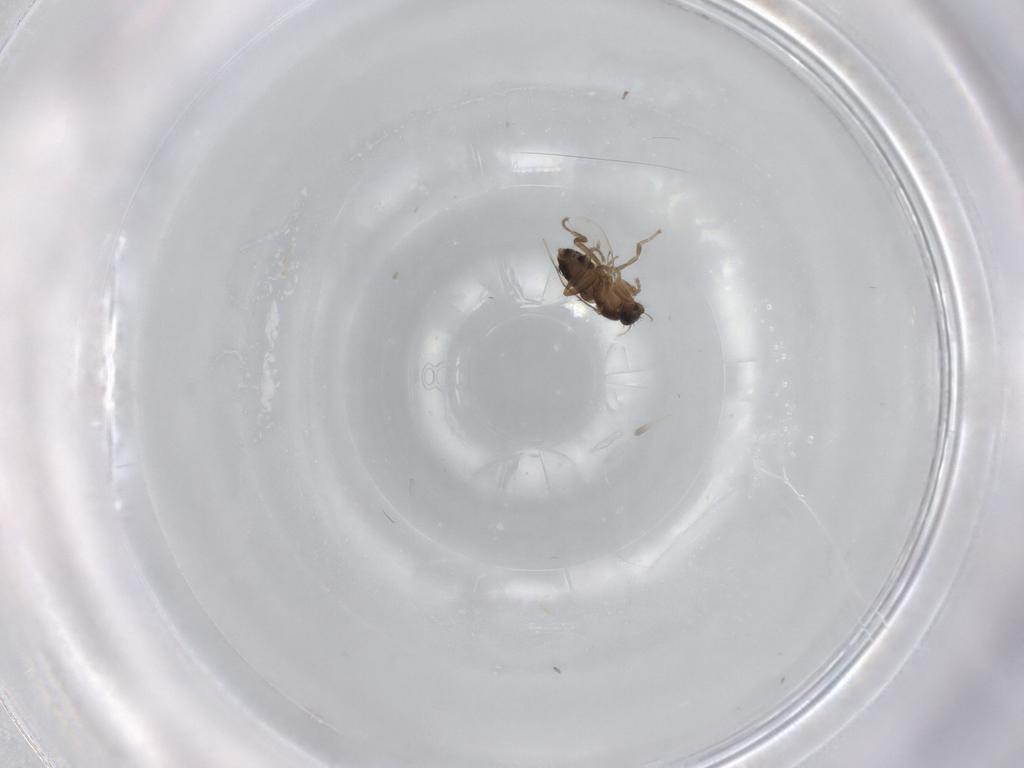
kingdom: Animalia
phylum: Arthropoda
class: Insecta
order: Diptera
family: Phoridae
